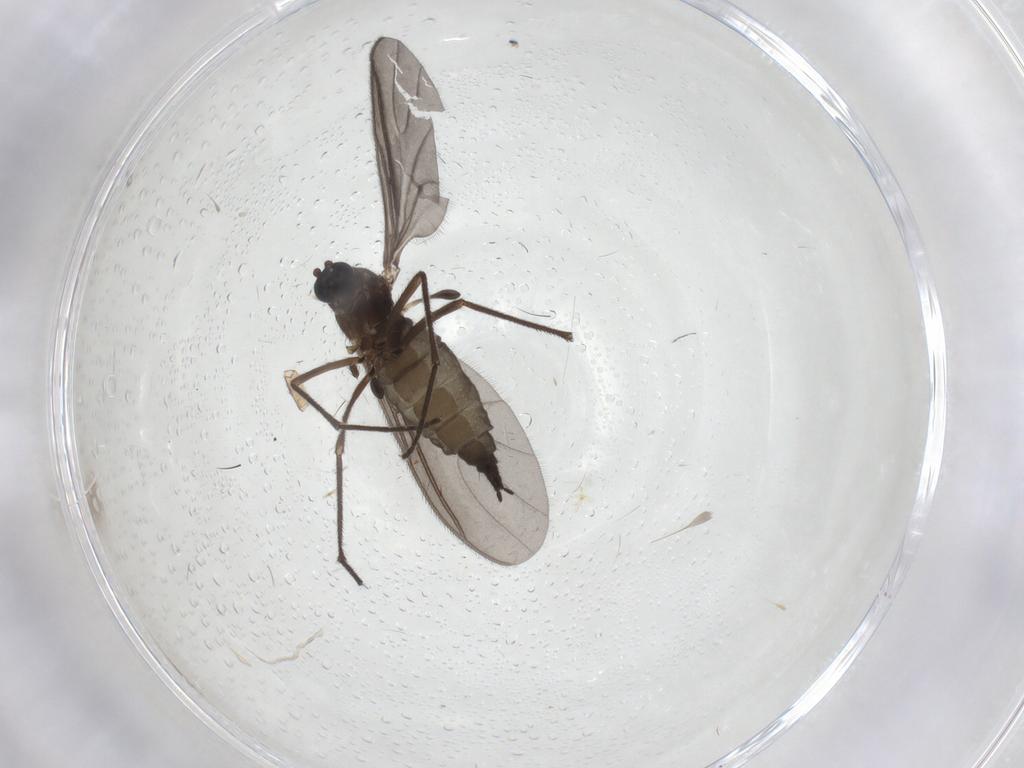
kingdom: Animalia
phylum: Arthropoda
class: Insecta
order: Diptera
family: Sciaridae
